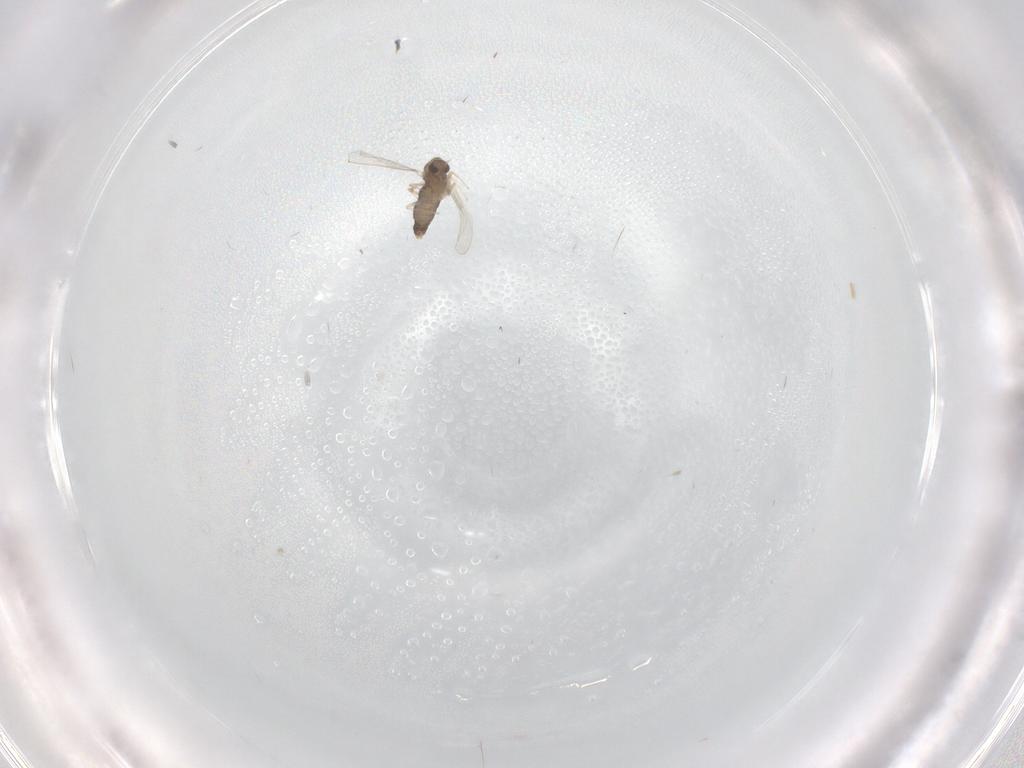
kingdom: Animalia
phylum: Arthropoda
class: Insecta
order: Diptera
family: Chironomidae
